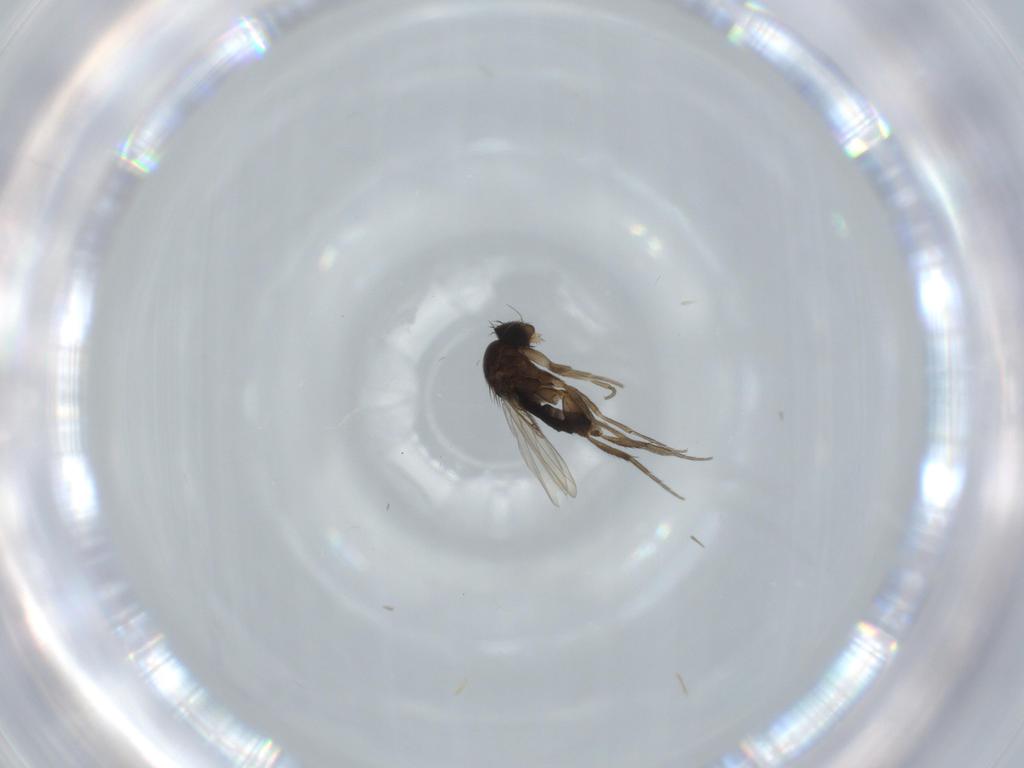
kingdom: Animalia
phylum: Arthropoda
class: Insecta
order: Diptera
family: Phoridae
